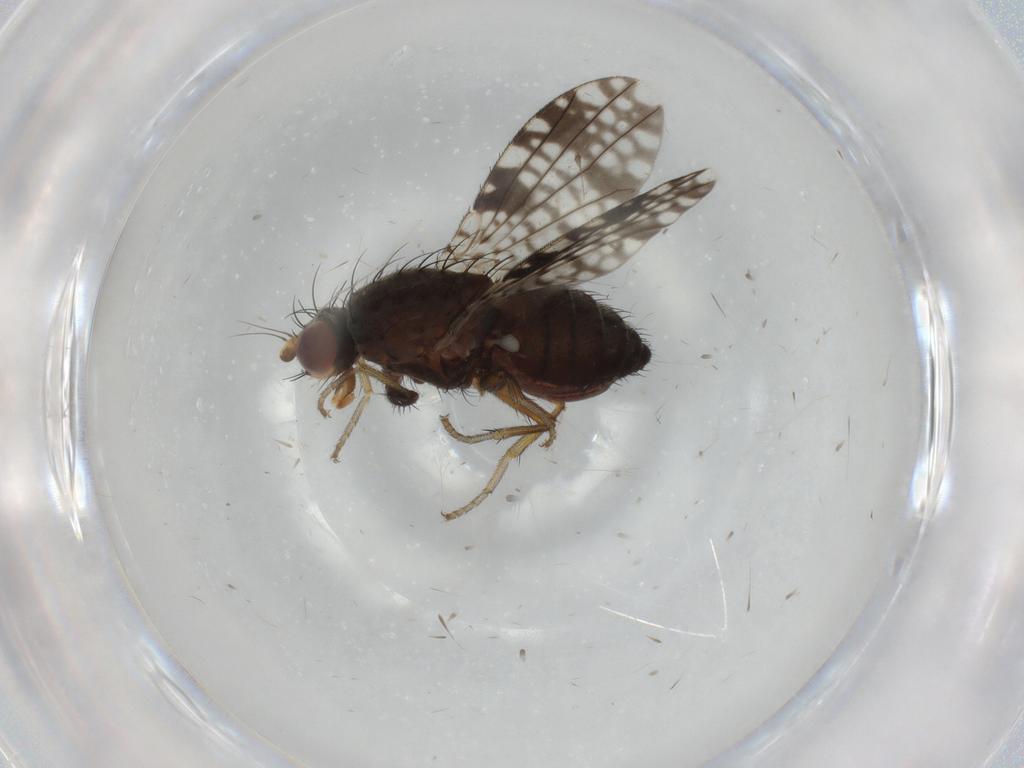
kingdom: Animalia
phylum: Arthropoda
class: Insecta
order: Diptera
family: Tephritidae
